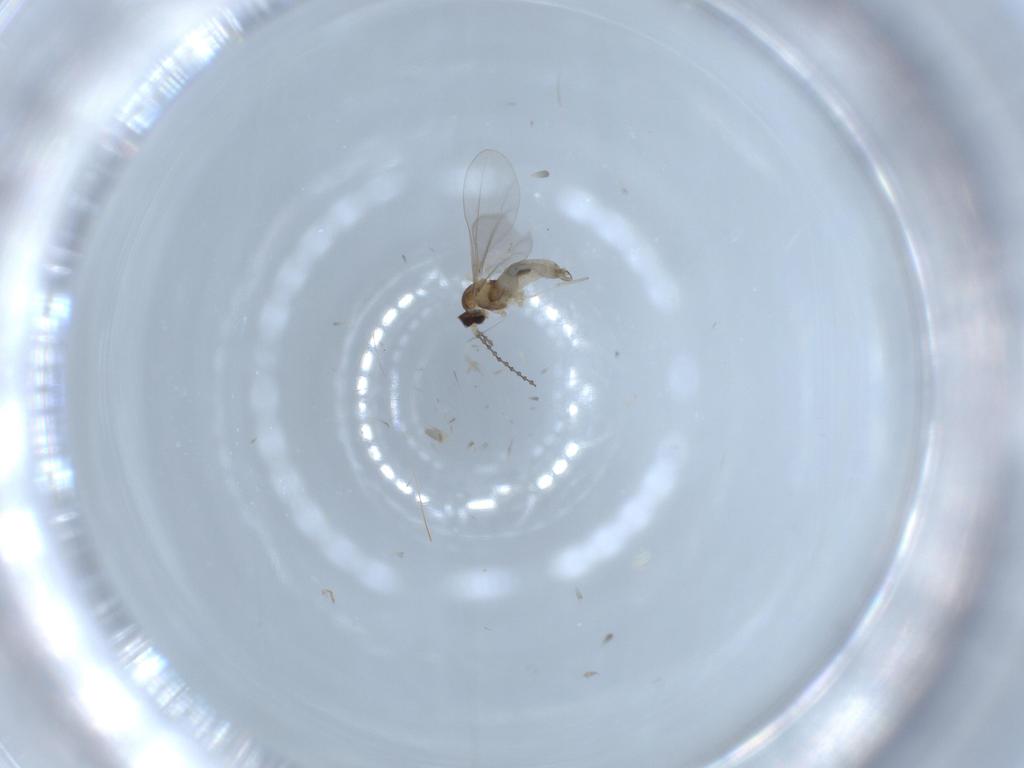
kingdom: Animalia
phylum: Arthropoda
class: Insecta
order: Diptera
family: Cecidomyiidae
